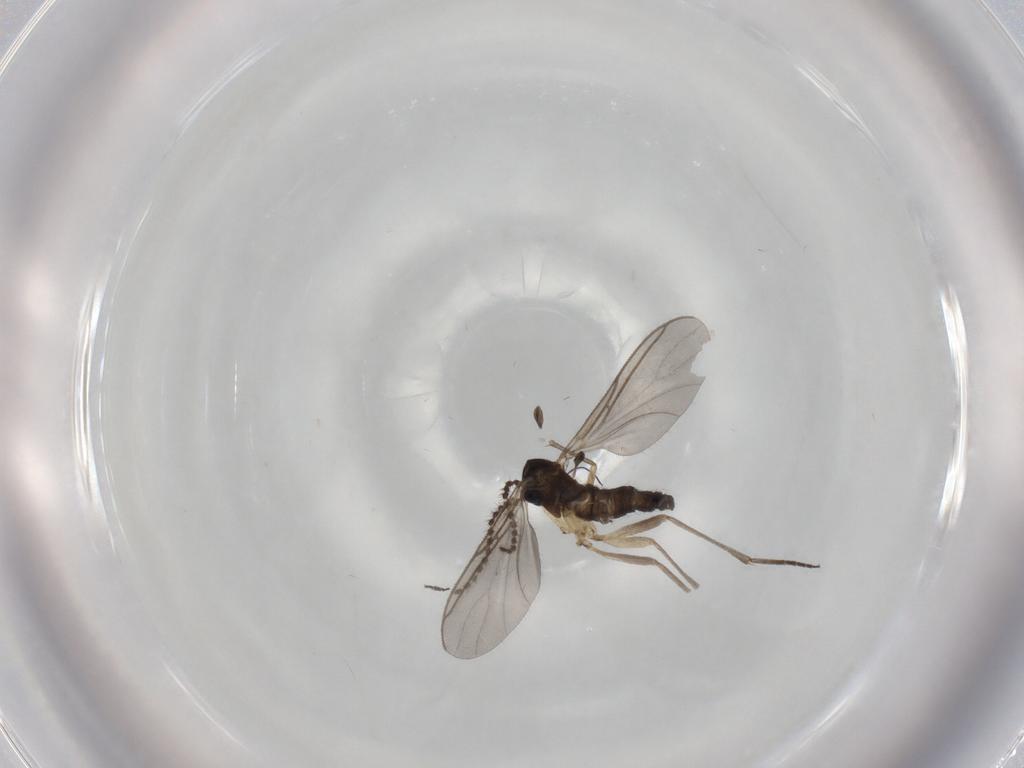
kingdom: Animalia
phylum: Arthropoda
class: Insecta
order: Diptera
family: Sciaridae
